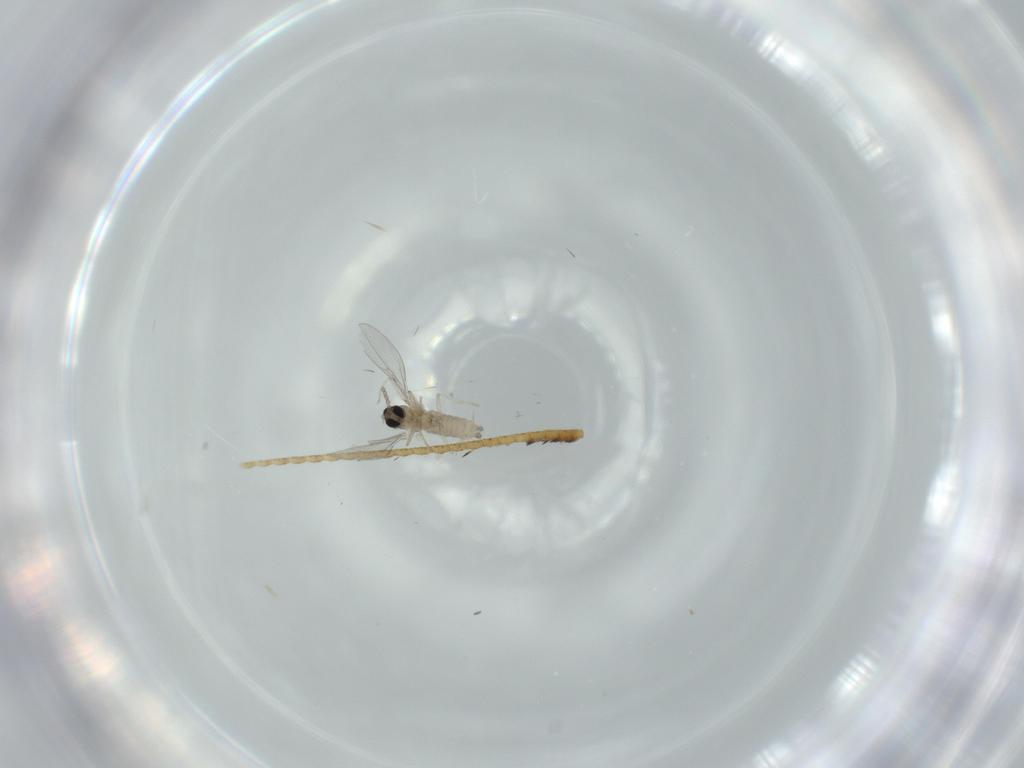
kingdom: Animalia
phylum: Arthropoda
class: Insecta
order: Diptera
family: Cecidomyiidae
